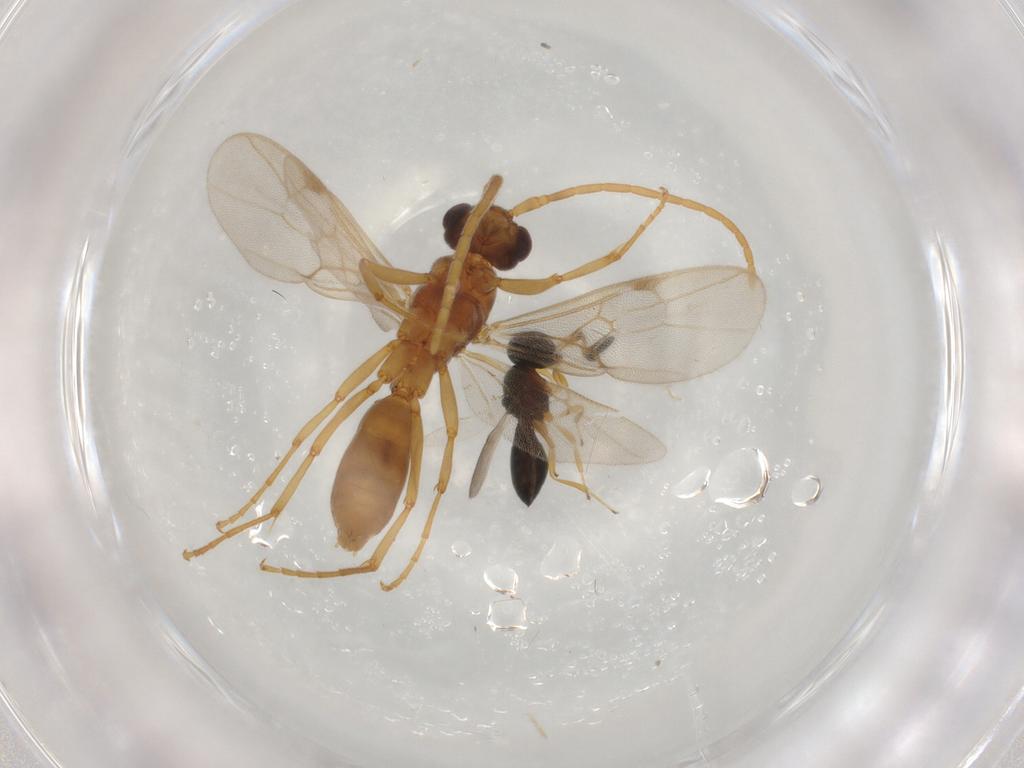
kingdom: Animalia
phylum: Arthropoda
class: Insecta
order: Hymenoptera
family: Formicidae
